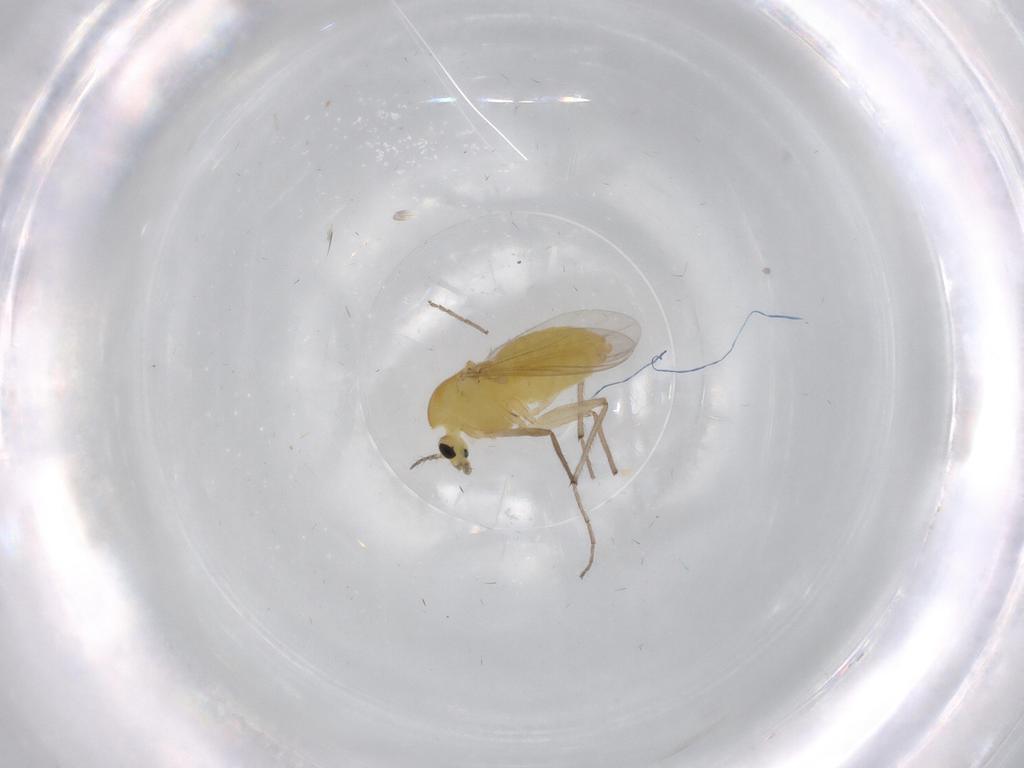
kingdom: Animalia
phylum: Arthropoda
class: Insecta
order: Diptera
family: Chironomidae
